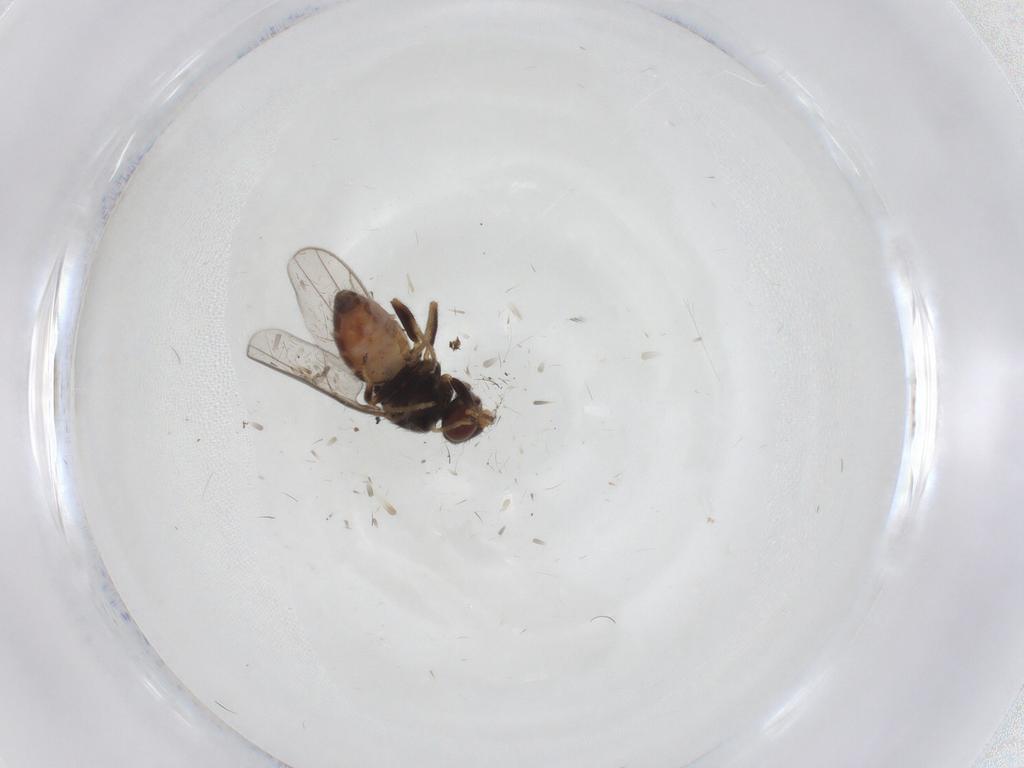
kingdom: Animalia
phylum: Arthropoda
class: Insecta
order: Diptera
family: Chloropidae
